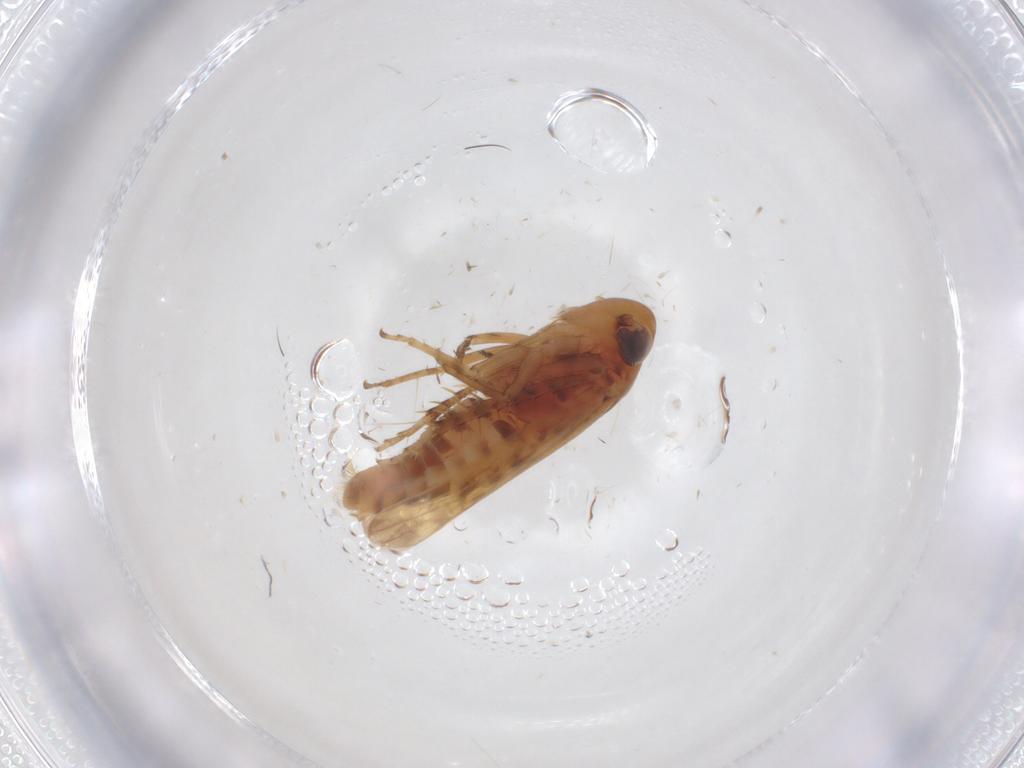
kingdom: Animalia
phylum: Arthropoda
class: Insecta
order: Hemiptera
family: Cicadellidae
